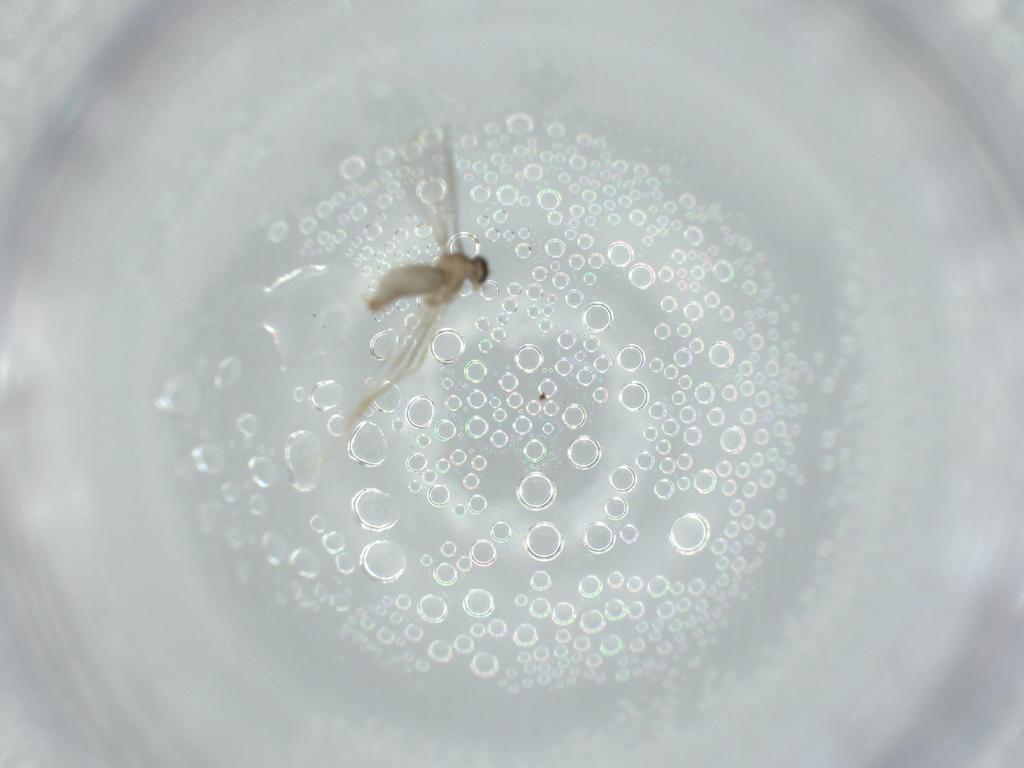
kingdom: Animalia
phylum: Arthropoda
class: Insecta
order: Diptera
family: Cecidomyiidae
